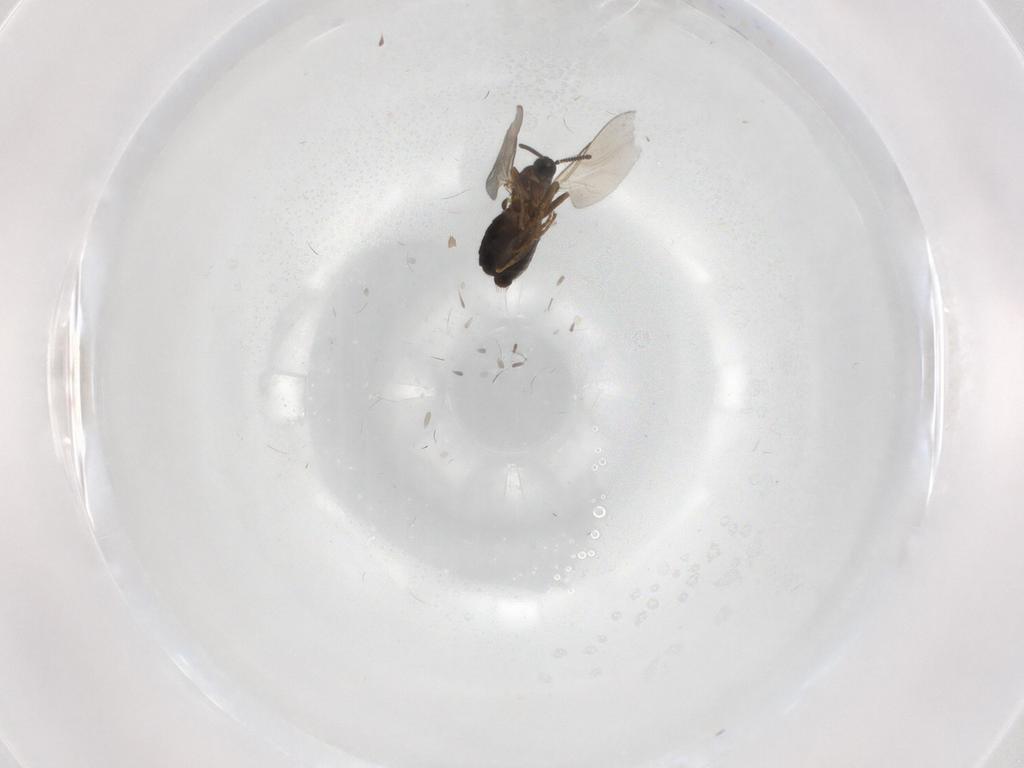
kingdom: Animalia
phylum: Arthropoda
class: Insecta
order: Diptera
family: Scatopsidae
